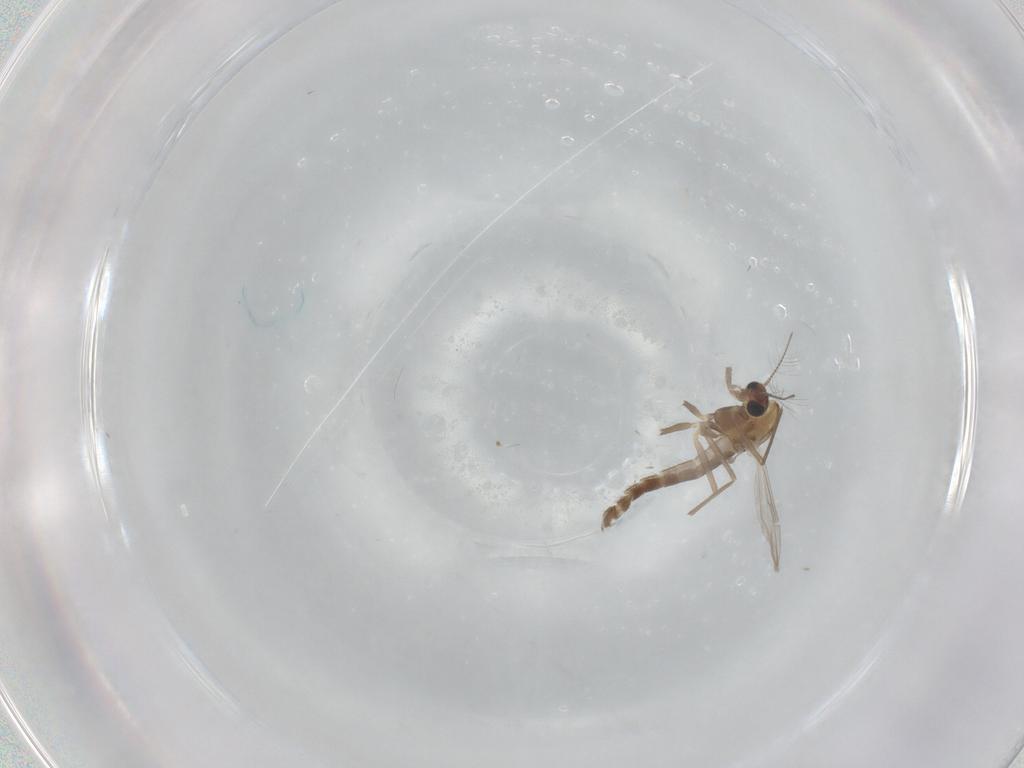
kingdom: Animalia
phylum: Arthropoda
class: Insecta
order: Diptera
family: Chironomidae
